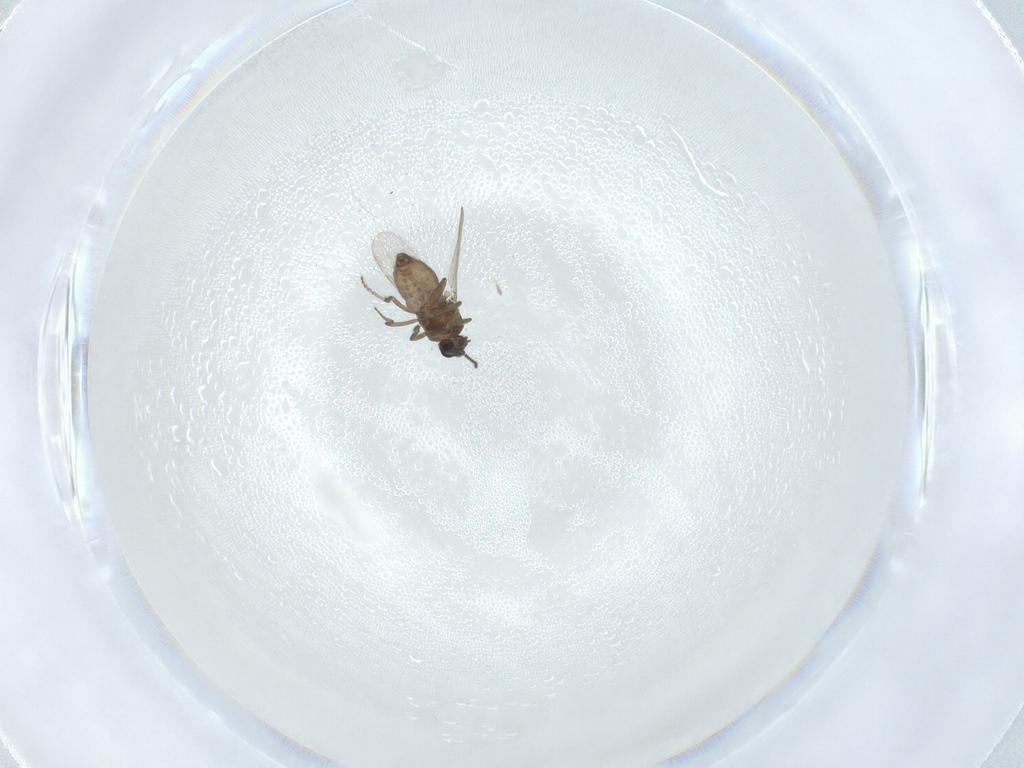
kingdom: Animalia
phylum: Arthropoda
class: Insecta
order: Diptera
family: Ceratopogonidae
